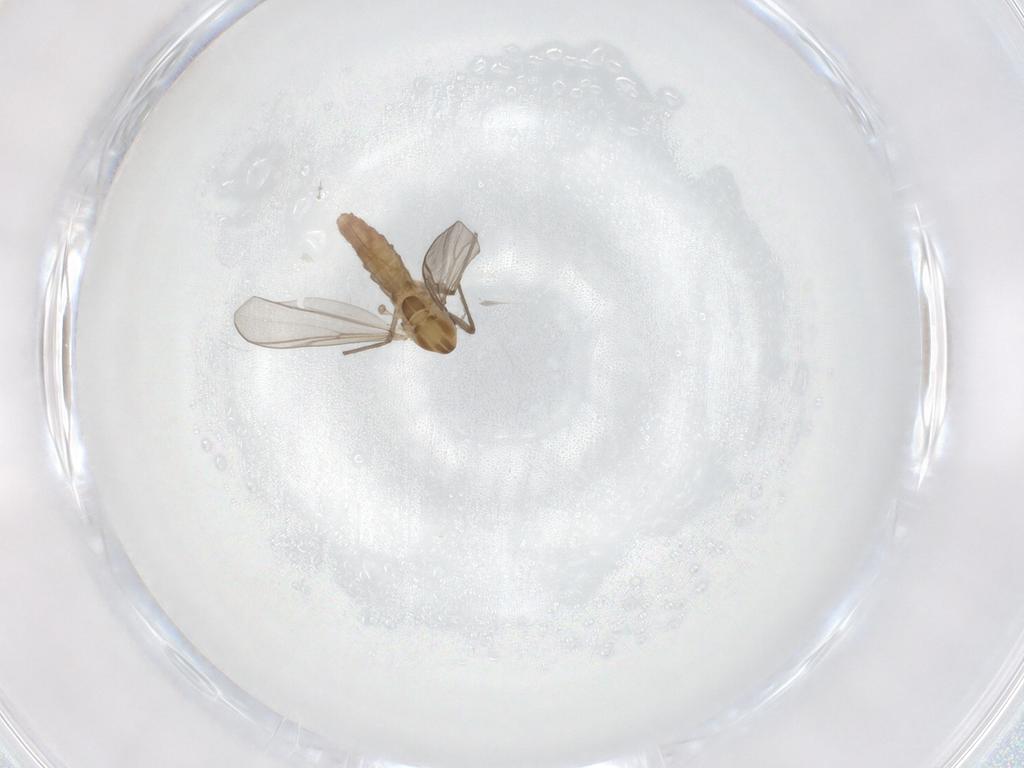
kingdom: Animalia
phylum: Arthropoda
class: Insecta
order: Diptera
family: Chironomidae
